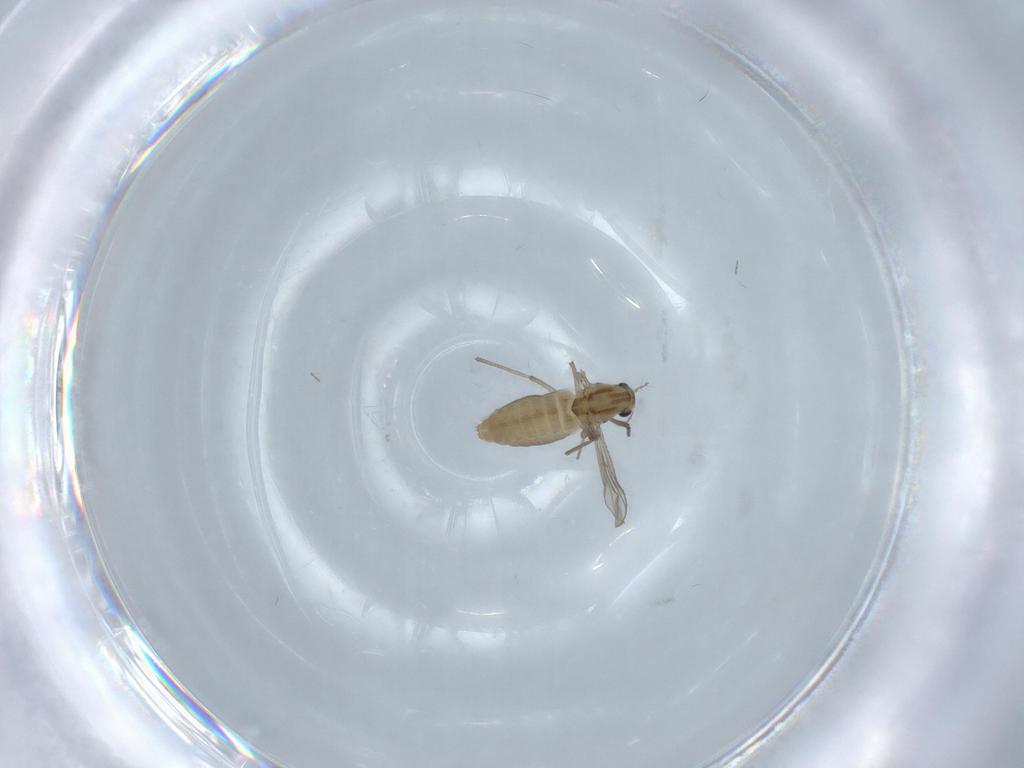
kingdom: Animalia
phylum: Arthropoda
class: Insecta
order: Diptera
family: Chironomidae
